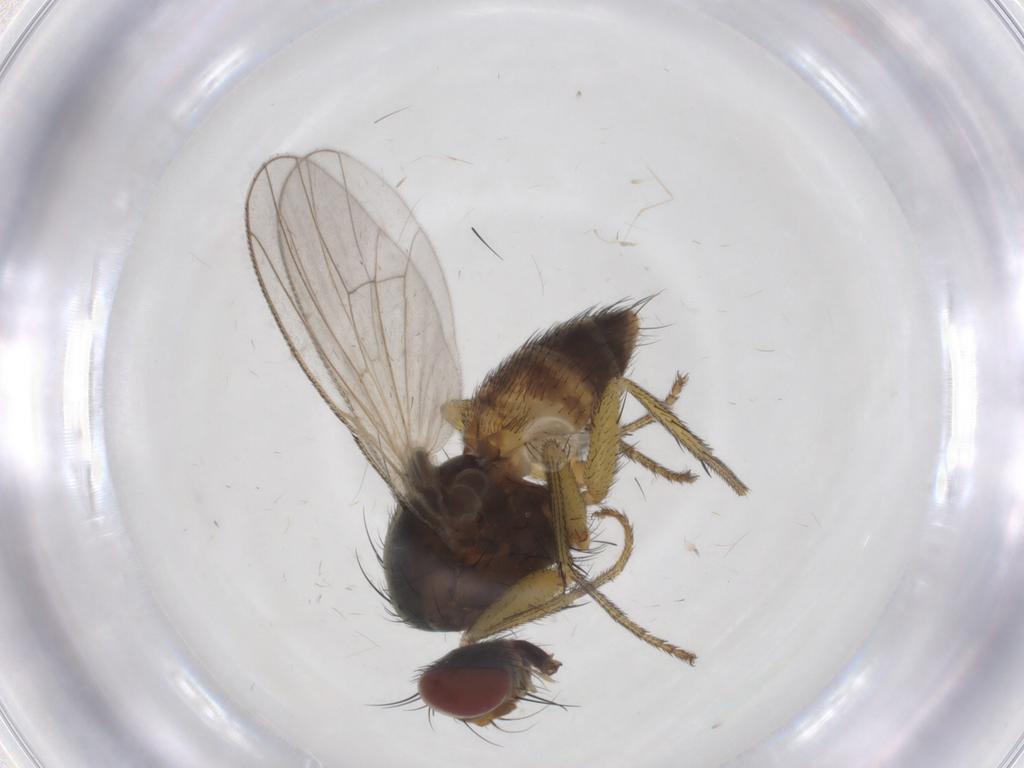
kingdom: Animalia
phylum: Arthropoda
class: Insecta
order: Diptera
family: Muscidae
